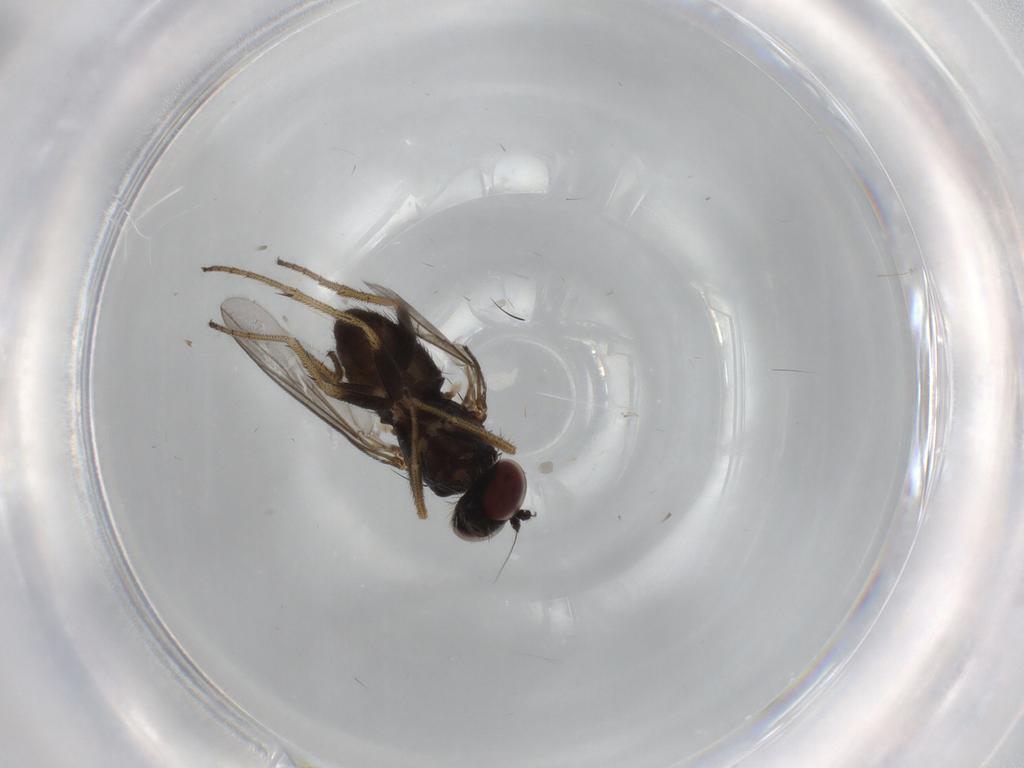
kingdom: Animalia
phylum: Arthropoda
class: Insecta
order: Diptera
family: Dolichopodidae
